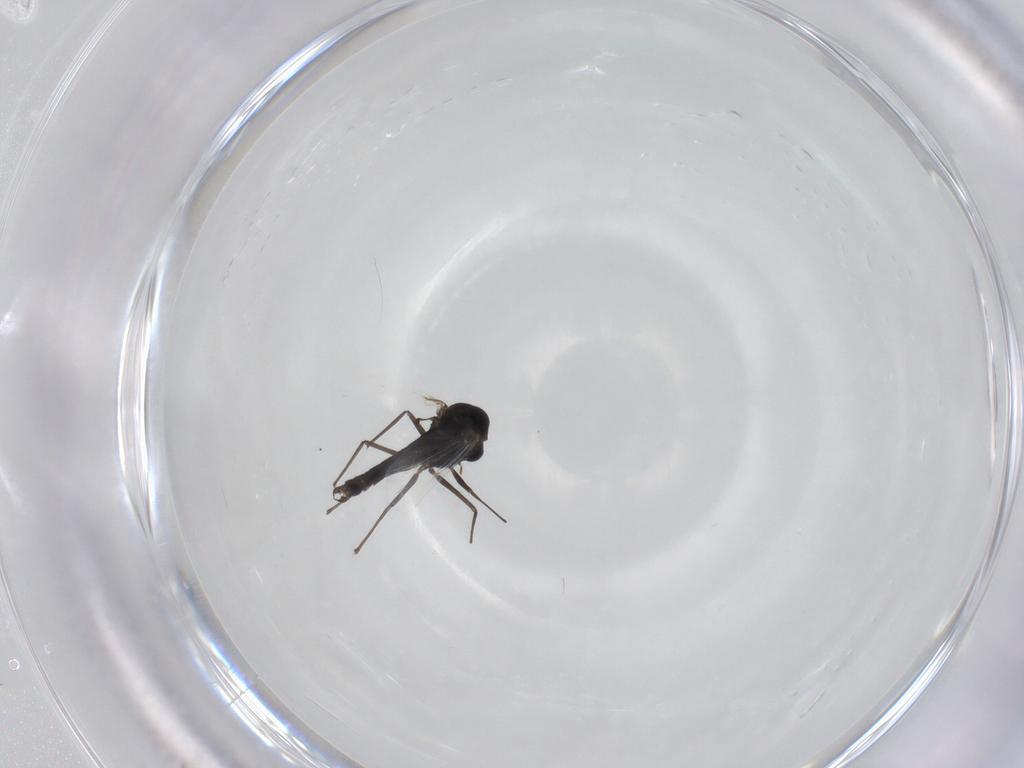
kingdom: Animalia
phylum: Arthropoda
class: Insecta
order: Diptera
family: Chironomidae
